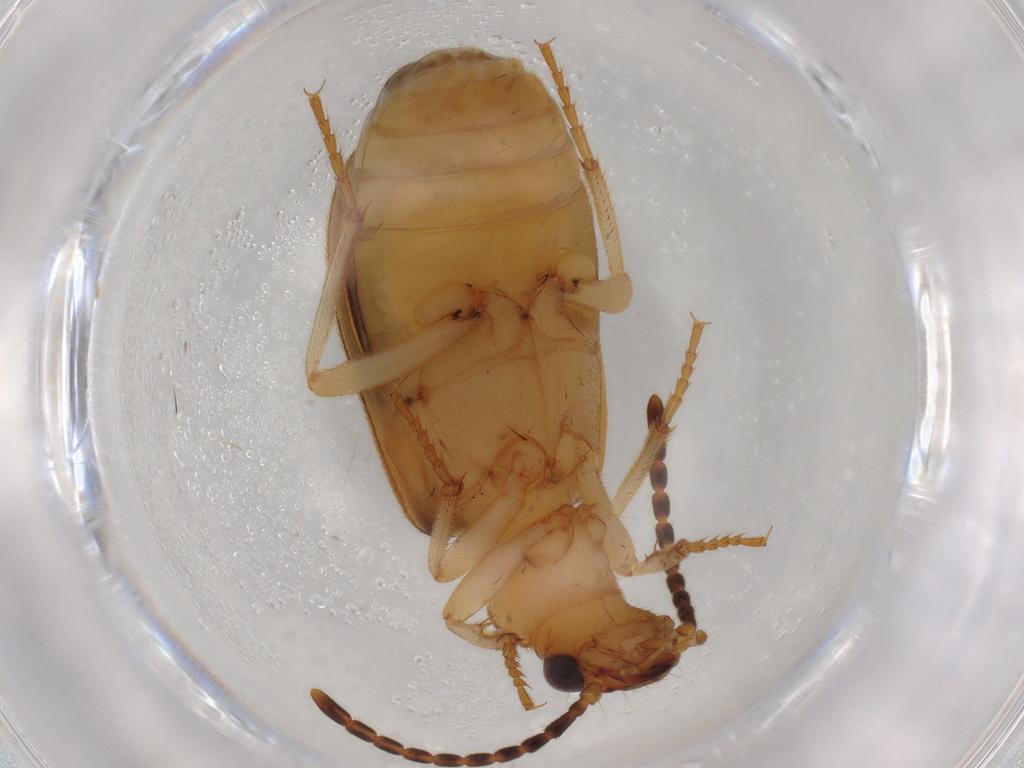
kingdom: Animalia
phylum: Arthropoda
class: Insecta
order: Coleoptera
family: Carabidae
